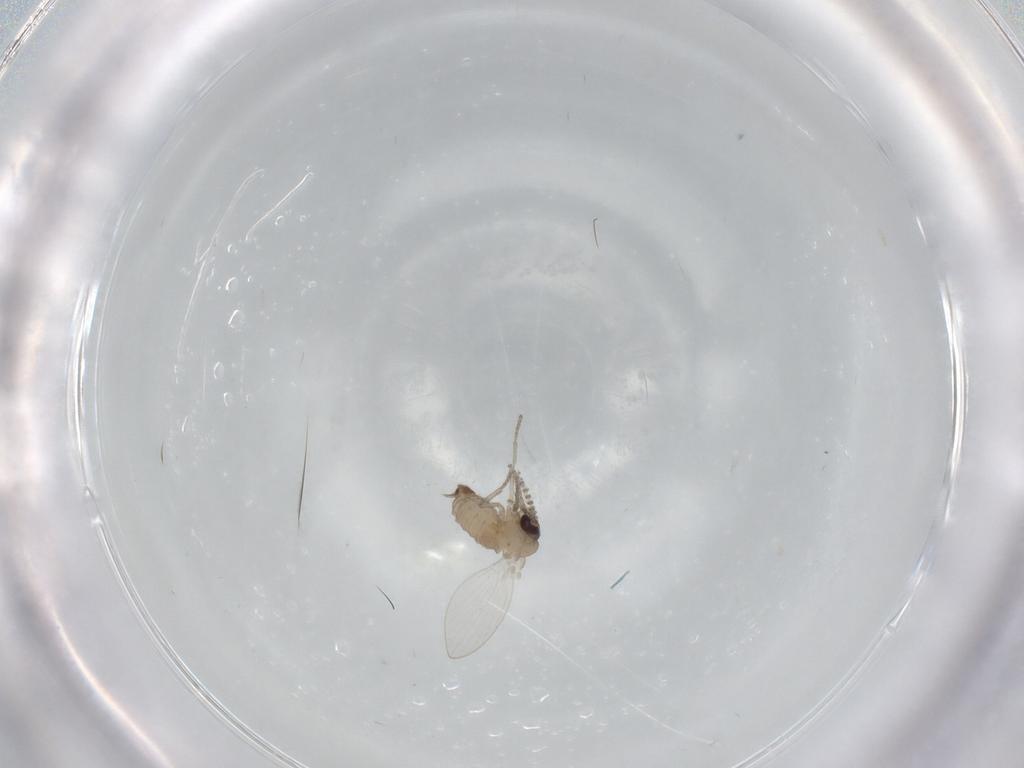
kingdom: Animalia
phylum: Arthropoda
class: Insecta
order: Diptera
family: Psychodidae
